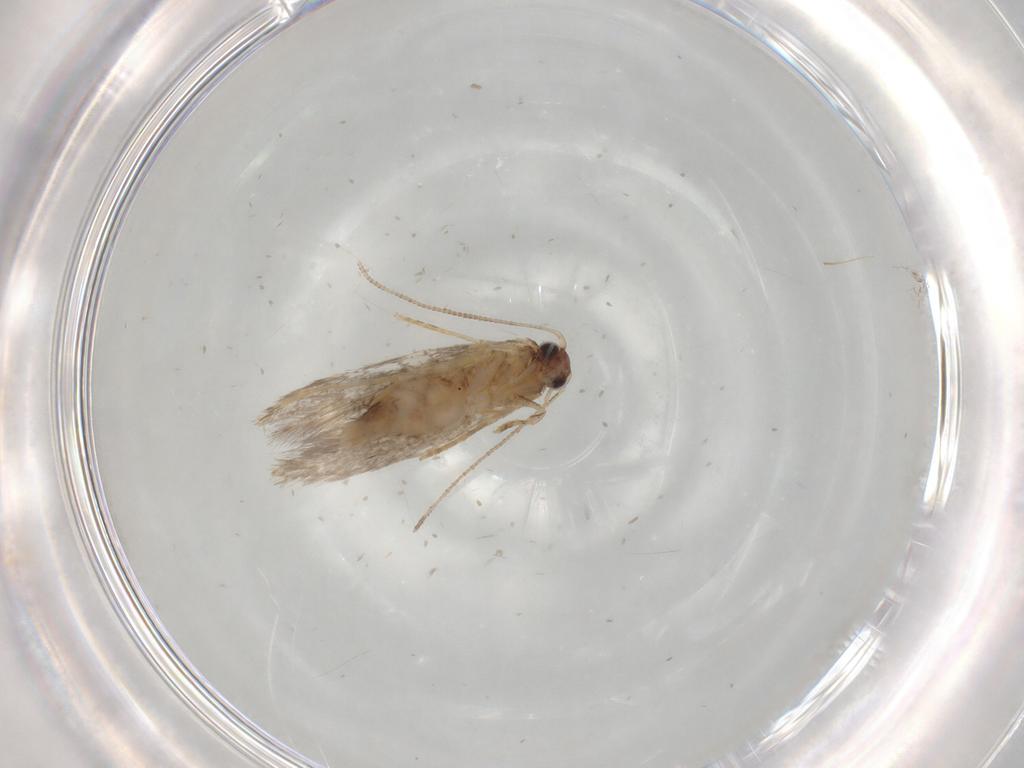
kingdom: Animalia
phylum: Arthropoda
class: Insecta
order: Lepidoptera
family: Tineidae
